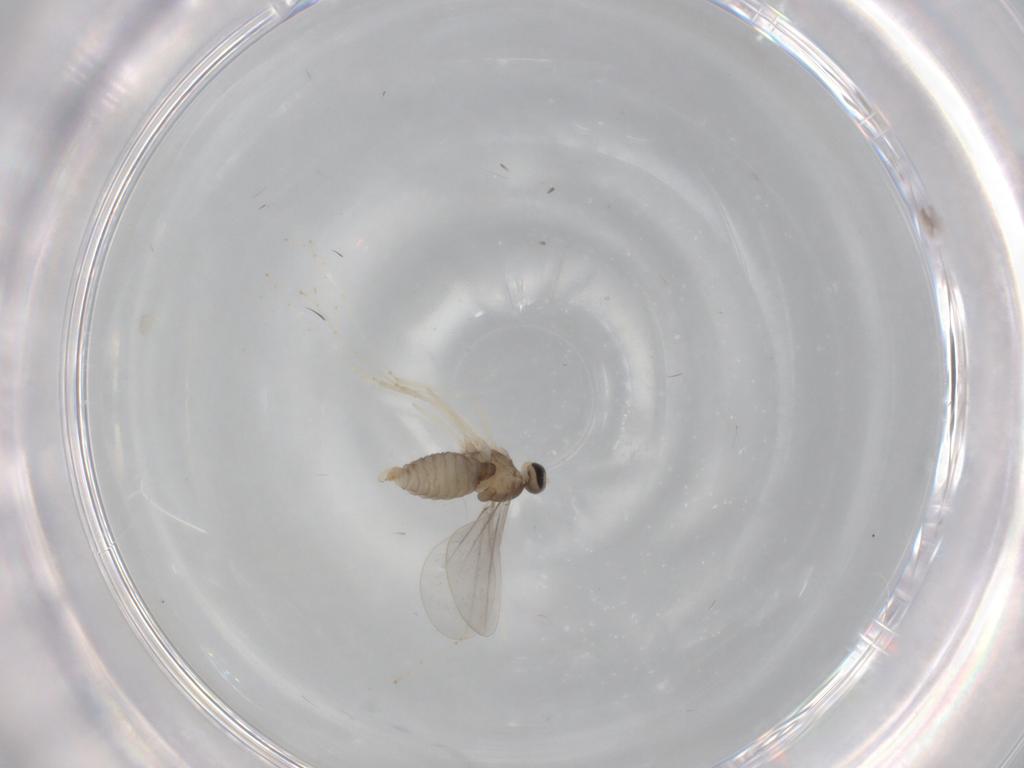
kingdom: Animalia
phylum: Arthropoda
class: Insecta
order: Diptera
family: Cecidomyiidae
